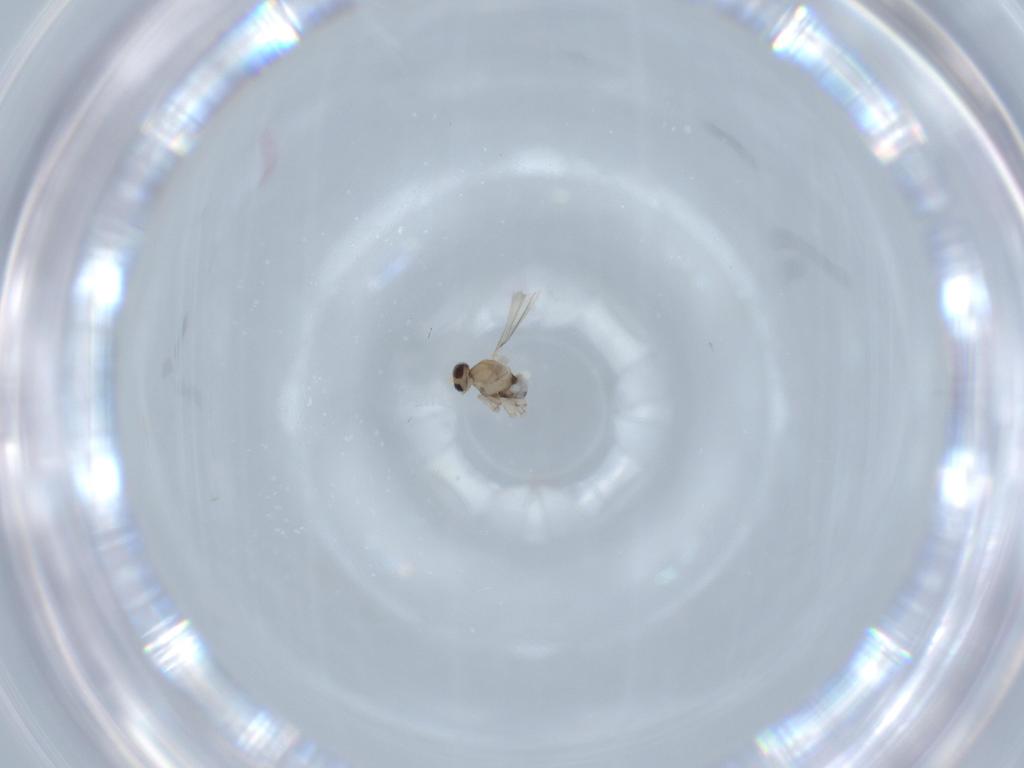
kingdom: Animalia
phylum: Arthropoda
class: Insecta
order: Diptera
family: Cecidomyiidae
